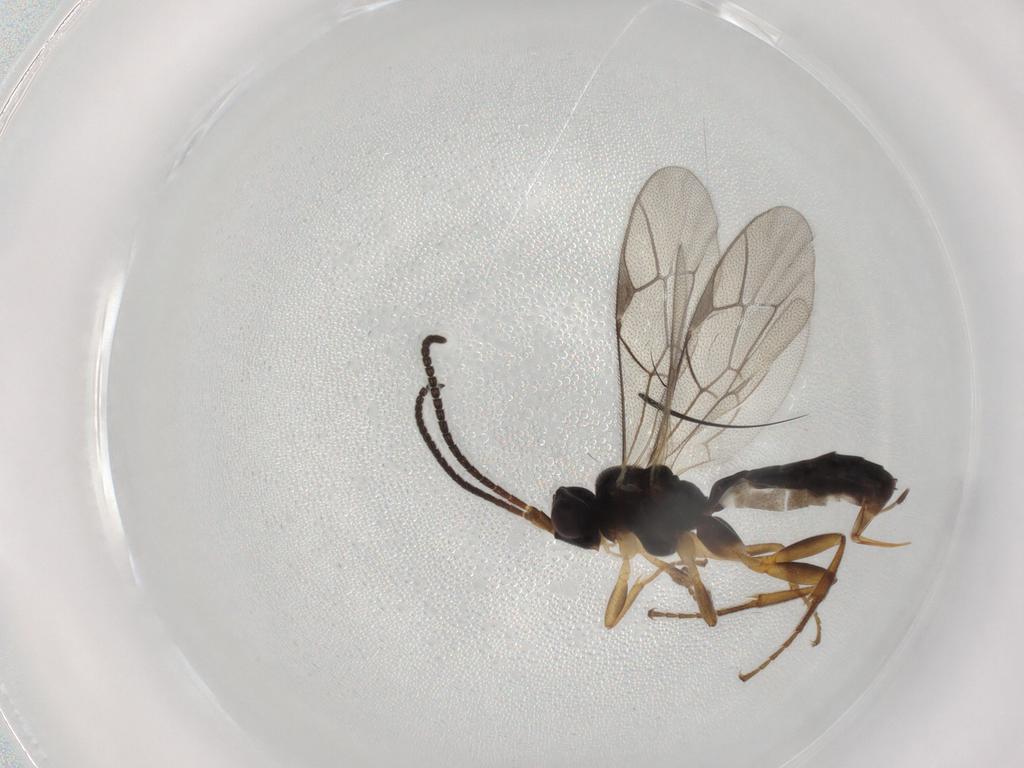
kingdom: Animalia
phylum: Arthropoda
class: Insecta
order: Hymenoptera
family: Ichneumonidae
